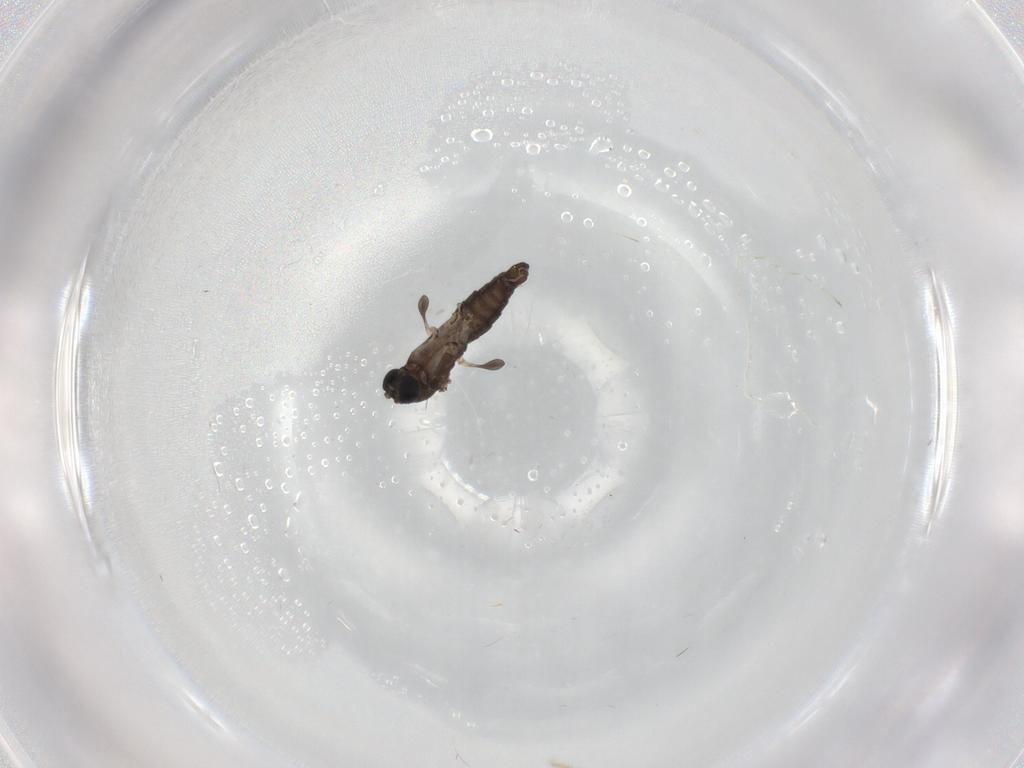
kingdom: Animalia
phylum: Arthropoda
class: Insecta
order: Diptera
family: Sciaridae
